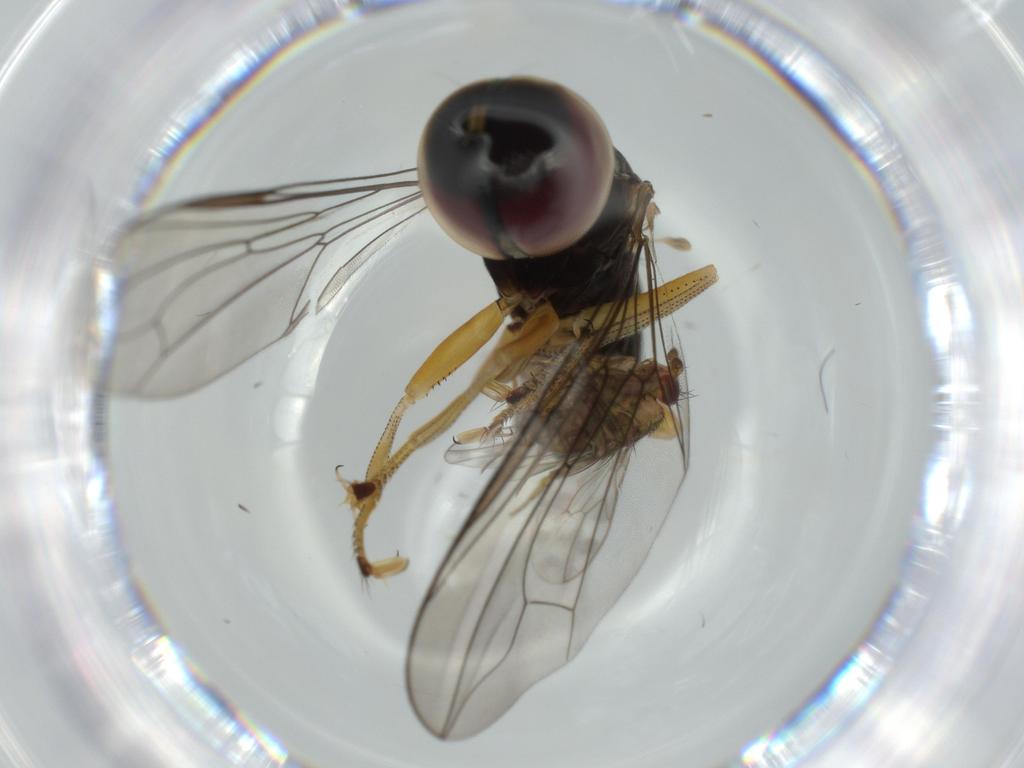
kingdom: Animalia
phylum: Arthropoda
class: Insecta
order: Diptera
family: Pipunculidae
